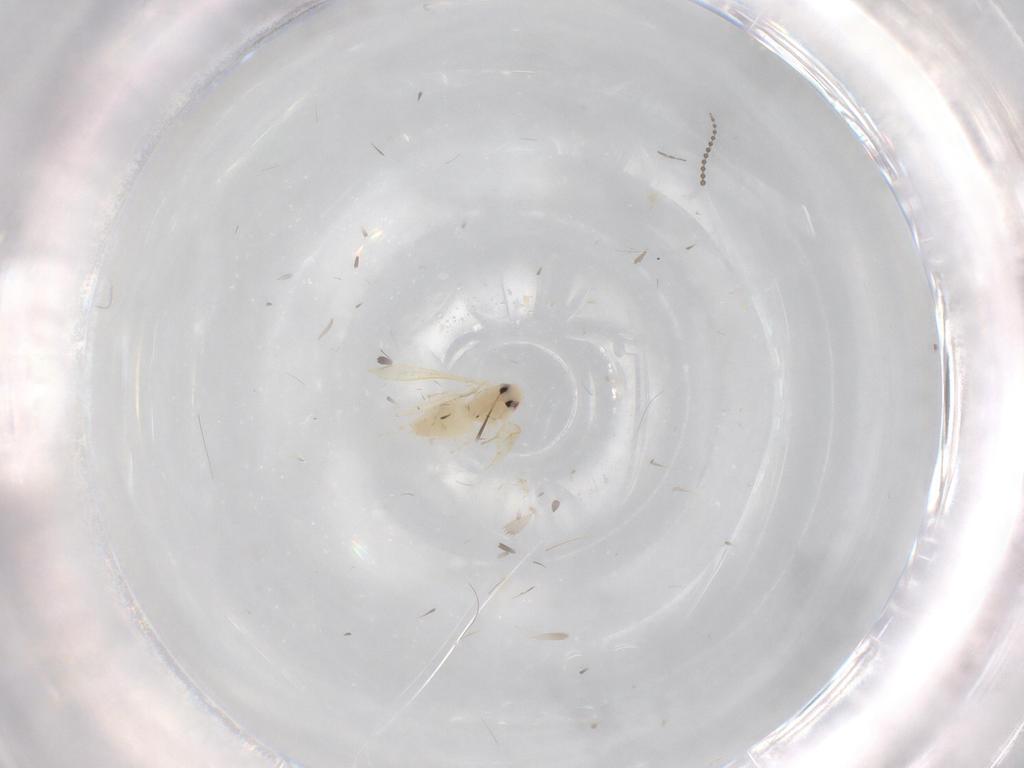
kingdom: Animalia
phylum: Arthropoda
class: Insecta
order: Hemiptera
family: Aleyrodidae
